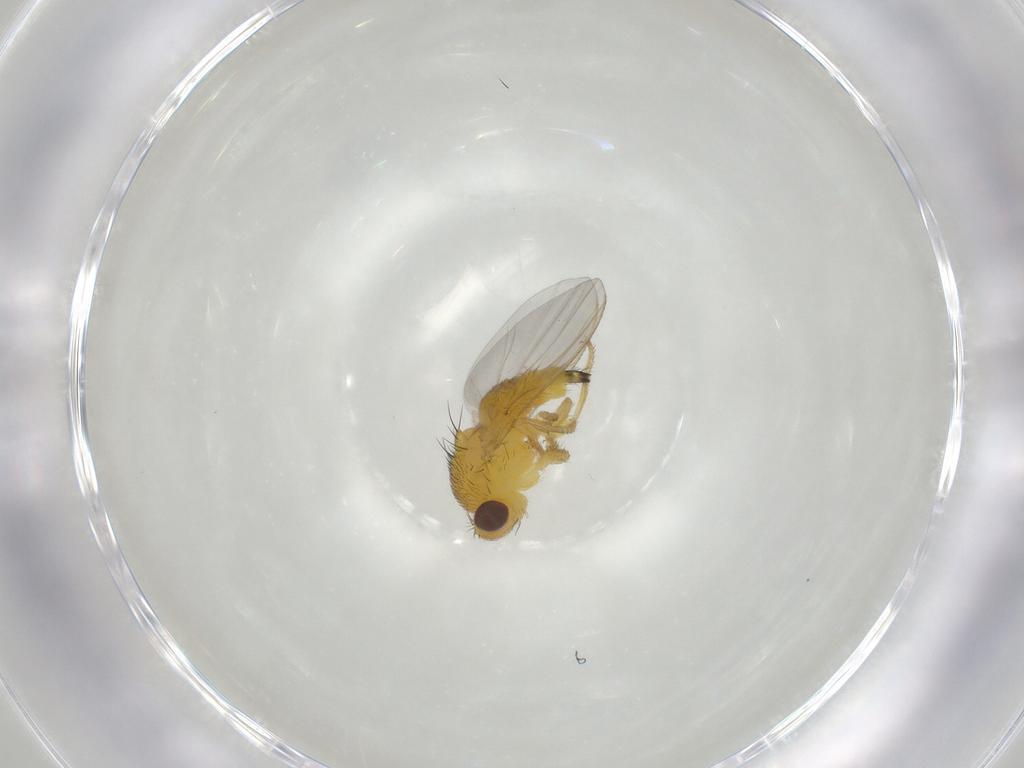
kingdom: Animalia
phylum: Arthropoda
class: Insecta
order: Diptera
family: Fergusoninidae
